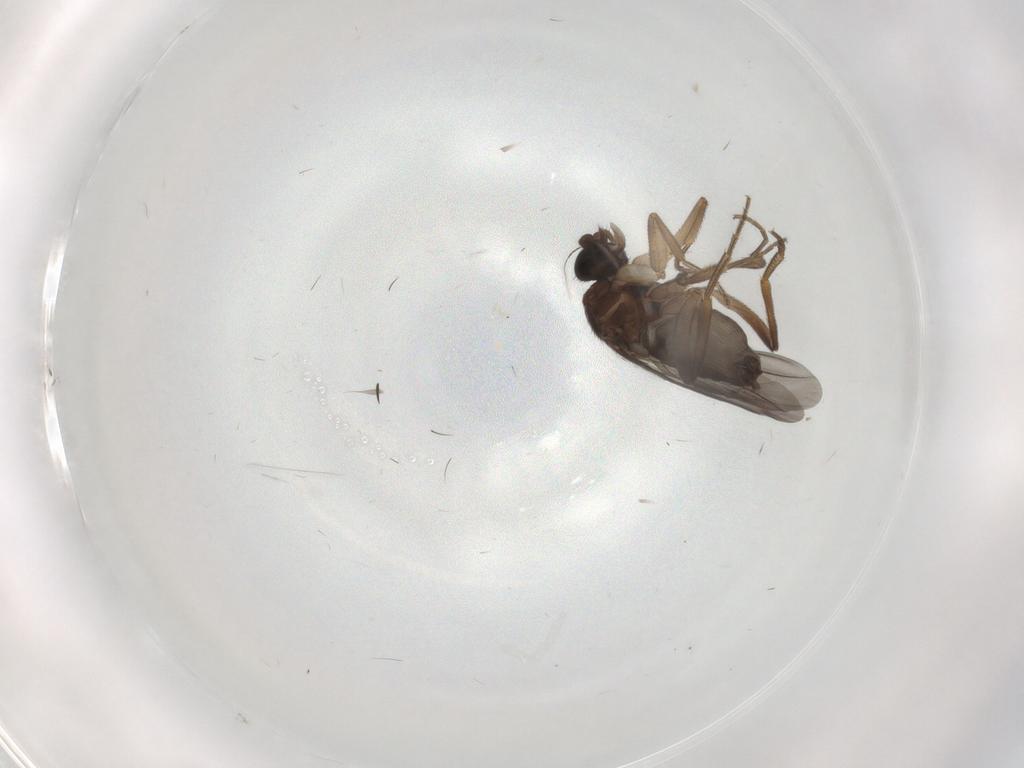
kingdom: Animalia
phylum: Arthropoda
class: Insecta
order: Diptera
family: Phoridae
